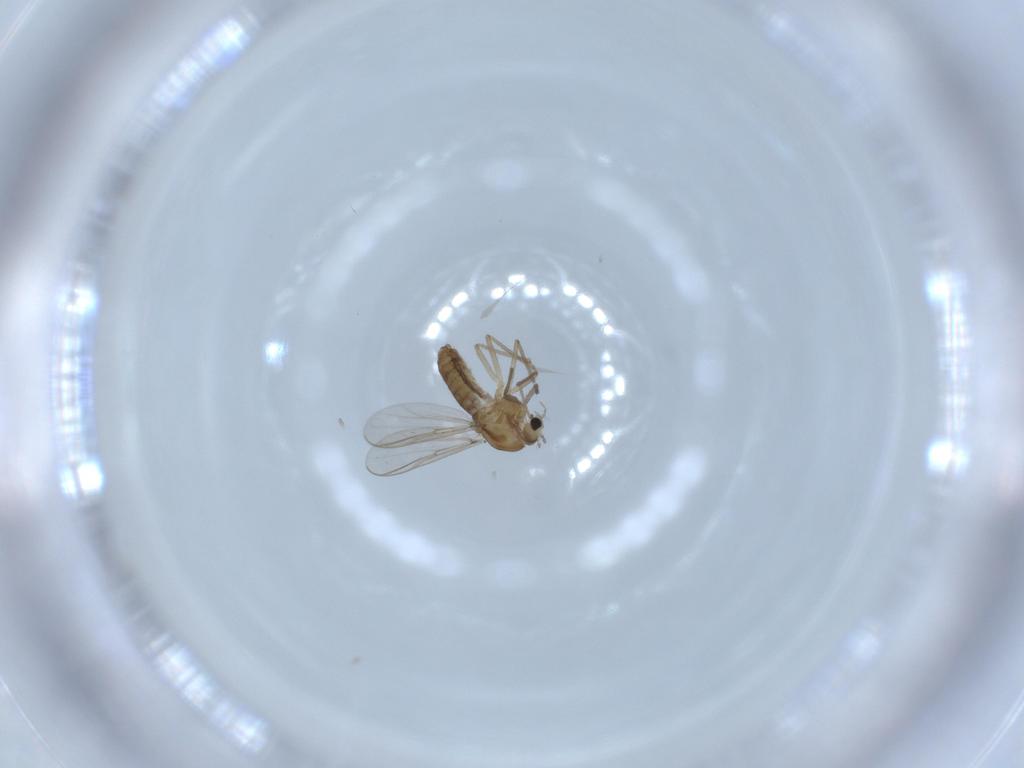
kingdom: Animalia
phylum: Arthropoda
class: Insecta
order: Diptera
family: Chironomidae
